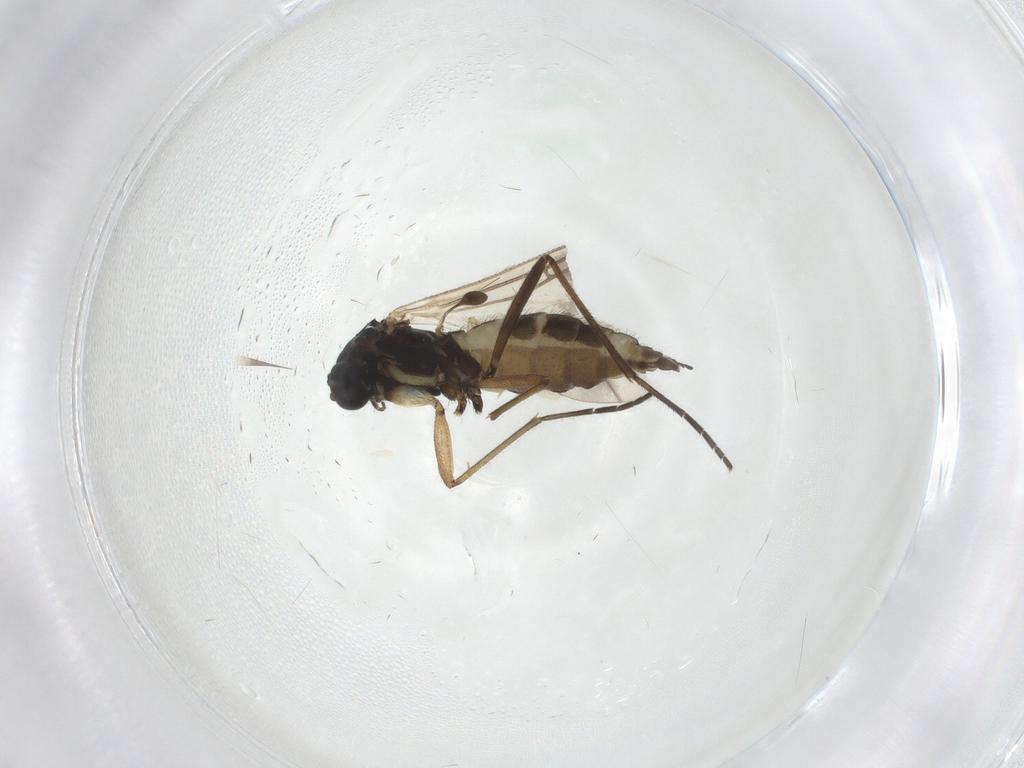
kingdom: Animalia
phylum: Arthropoda
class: Insecta
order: Diptera
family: Sciaridae
